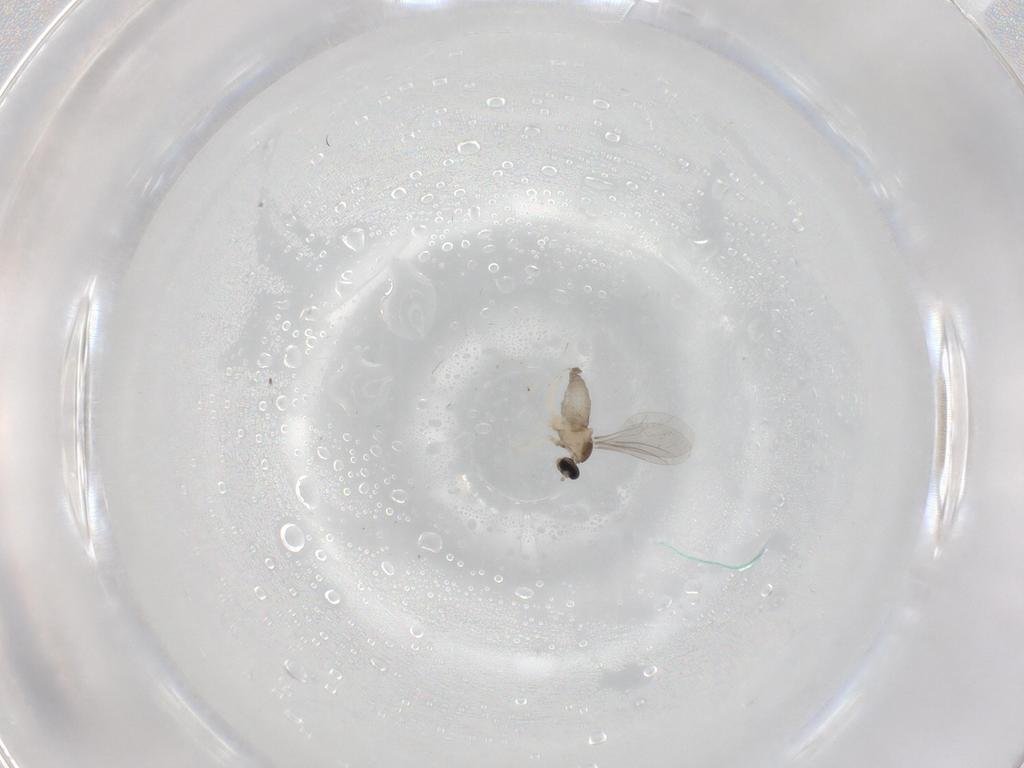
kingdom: Animalia
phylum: Arthropoda
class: Insecta
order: Diptera
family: Cecidomyiidae
